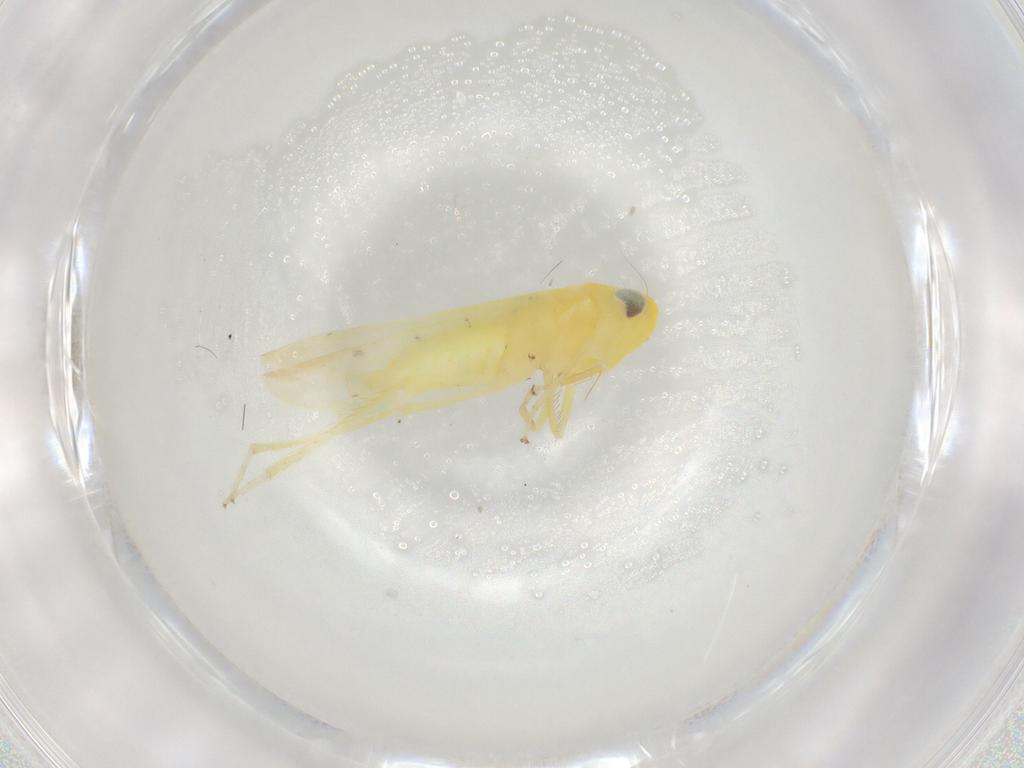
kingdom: Animalia
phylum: Arthropoda
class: Insecta
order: Hemiptera
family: Cicadellidae
